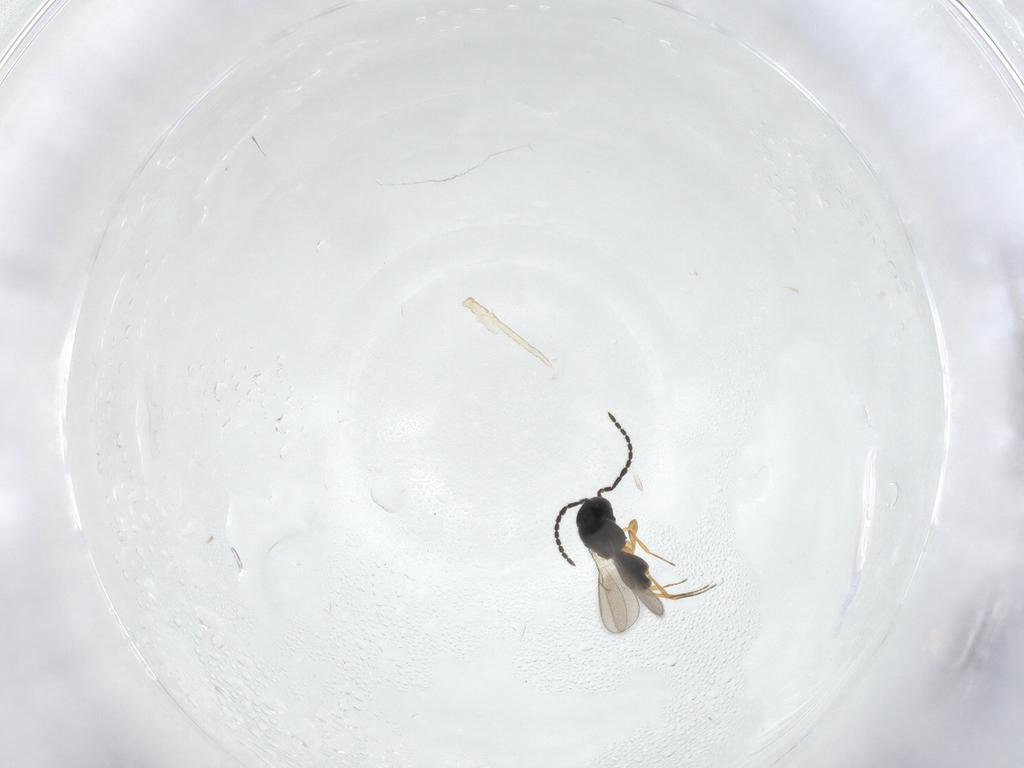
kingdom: Animalia
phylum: Arthropoda
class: Insecta
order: Hymenoptera
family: Scelionidae
